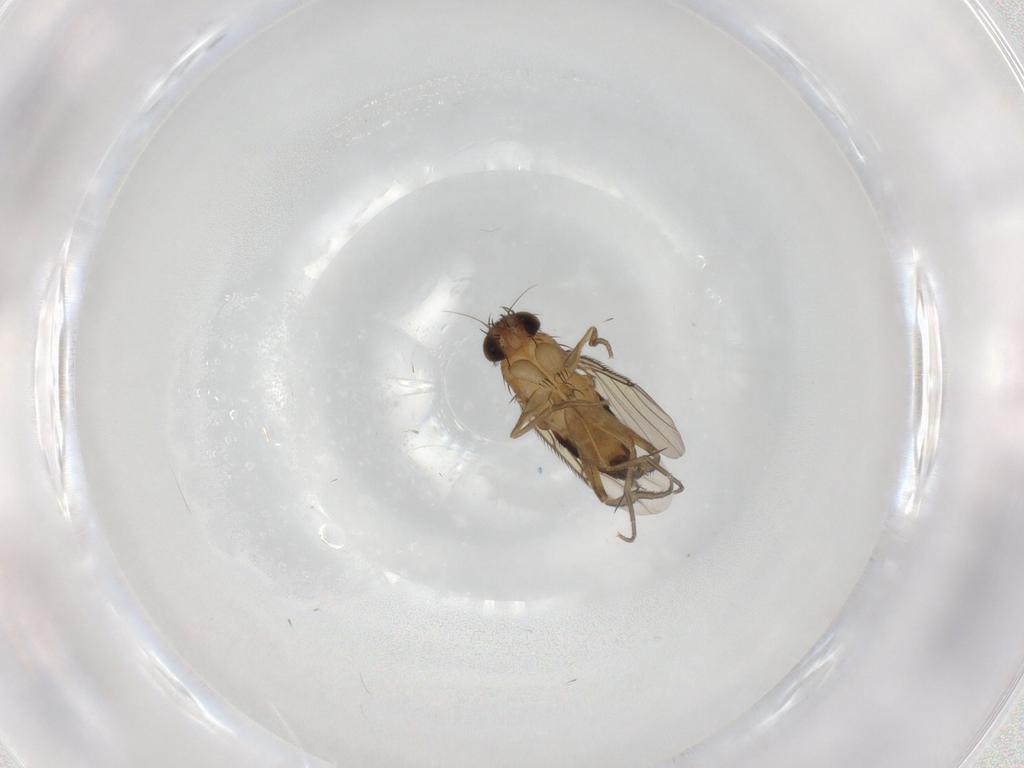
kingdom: Animalia
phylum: Arthropoda
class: Insecta
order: Diptera
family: Phoridae
